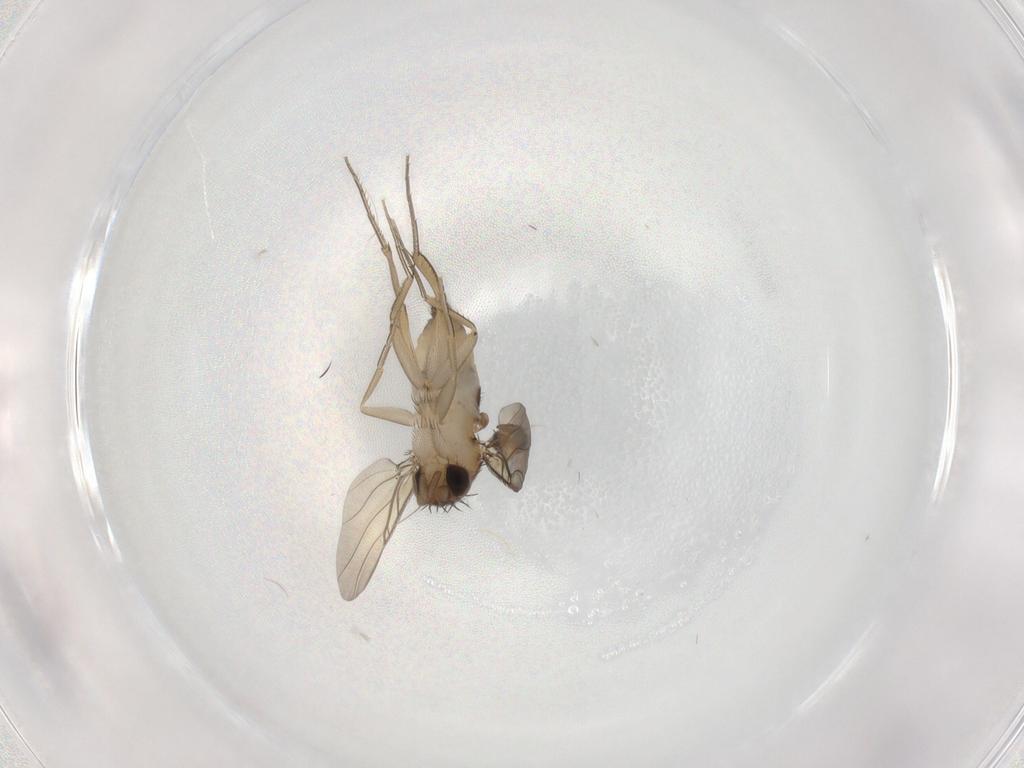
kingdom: Animalia
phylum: Arthropoda
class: Insecta
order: Diptera
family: Phoridae
